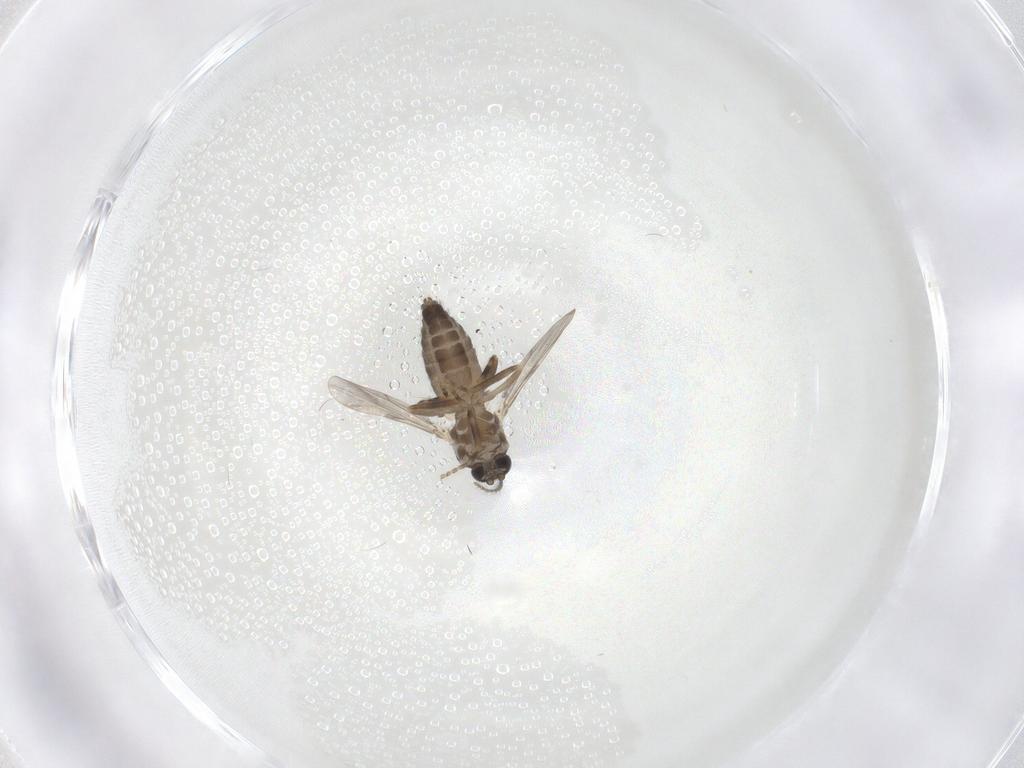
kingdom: Animalia
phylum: Arthropoda
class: Insecta
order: Diptera
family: Ceratopogonidae
